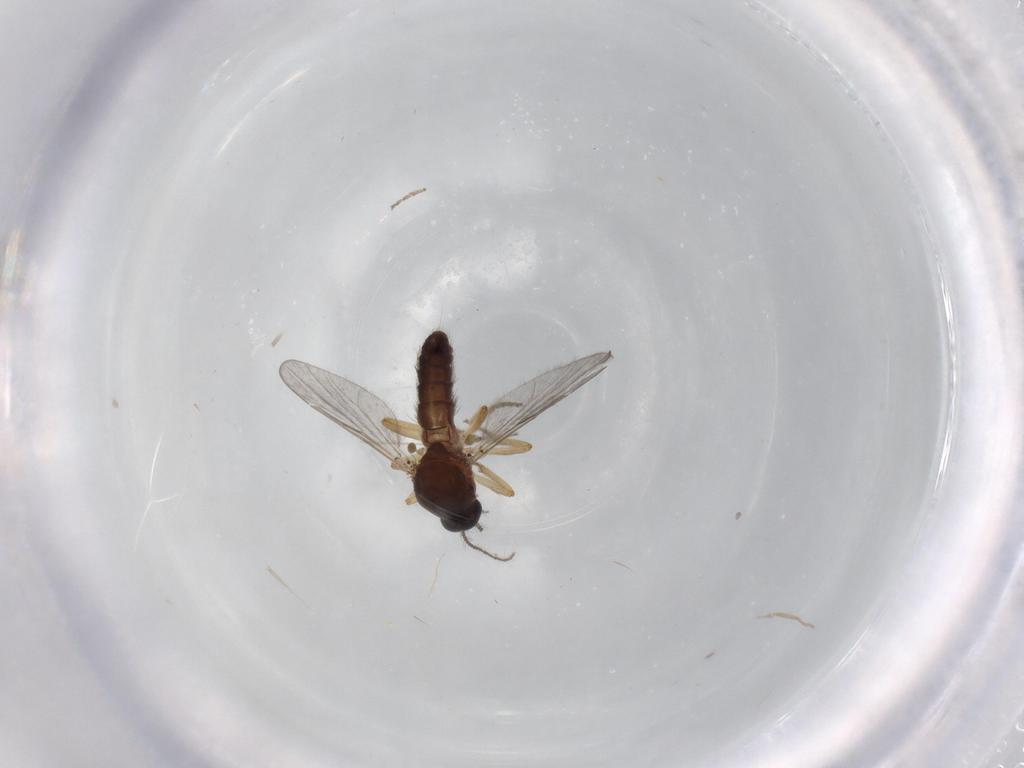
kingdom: Animalia
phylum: Arthropoda
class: Insecta
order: Diptera
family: Ceratopogonidae
